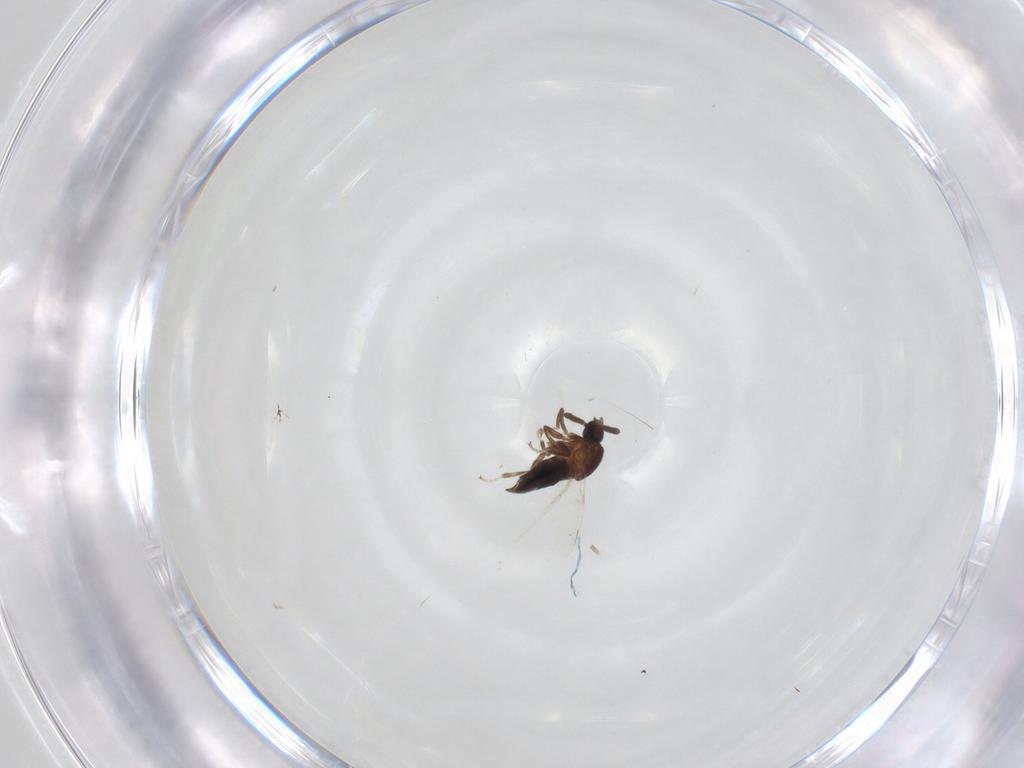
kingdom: Animalia
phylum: Arthropoda
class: Insecta
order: Diptera
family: Scatopsidae
